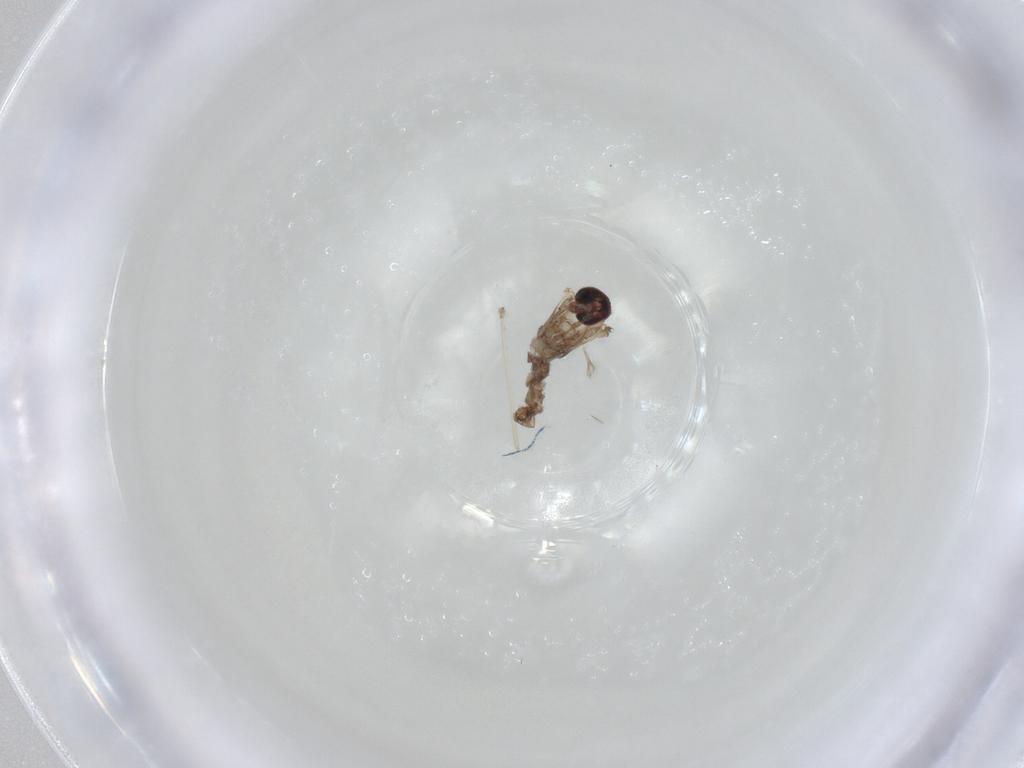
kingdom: Animalia
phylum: Arthropoda
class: Insecta
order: Diptera
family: Cecidomyiidae
